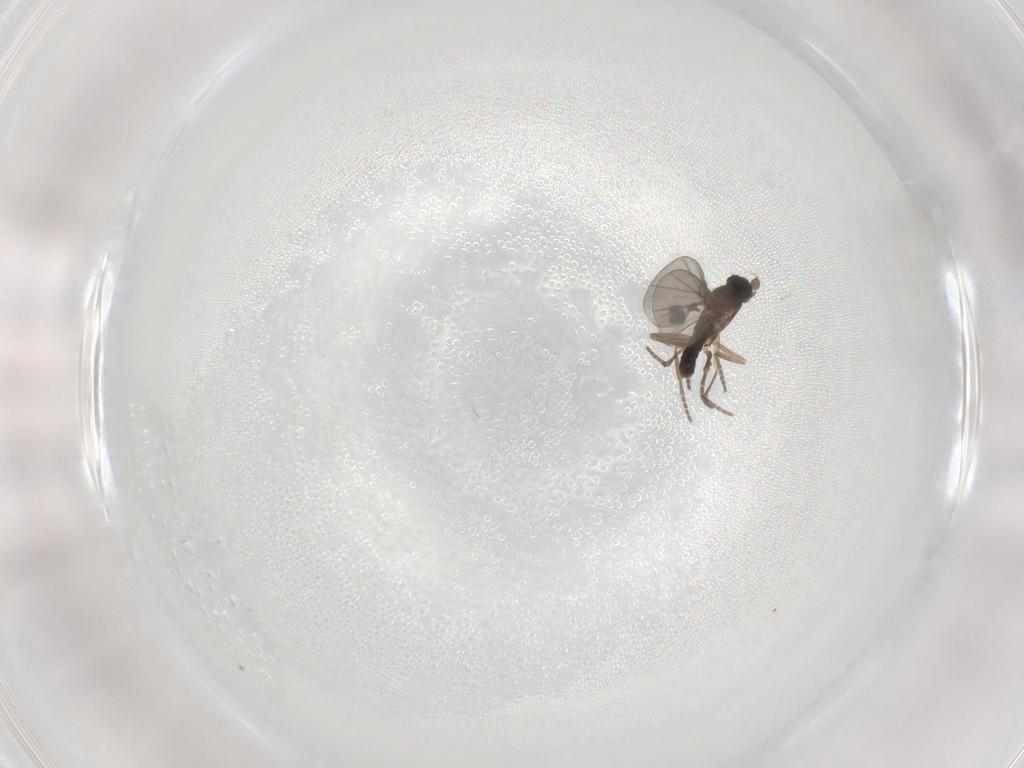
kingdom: Animalia
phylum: Arthropoda
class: Insecta
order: Diptera
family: Phoridae
